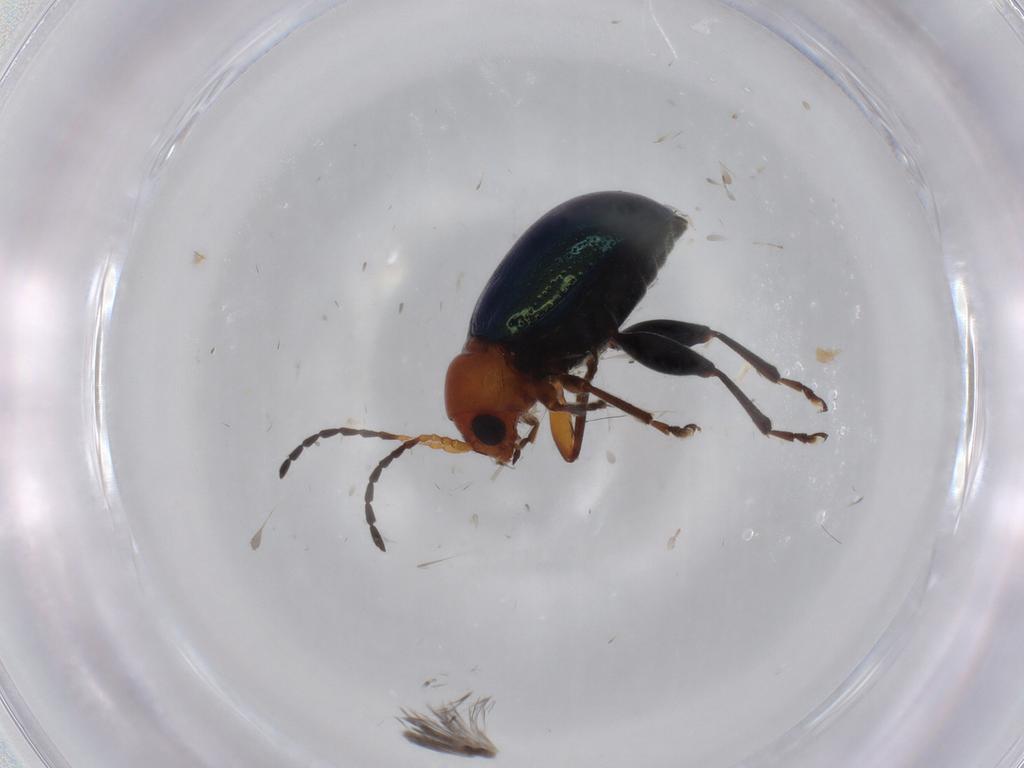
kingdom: Animalia
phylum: Arthropoda
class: Insecta
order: Coleoptera
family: Chrysomelidae
